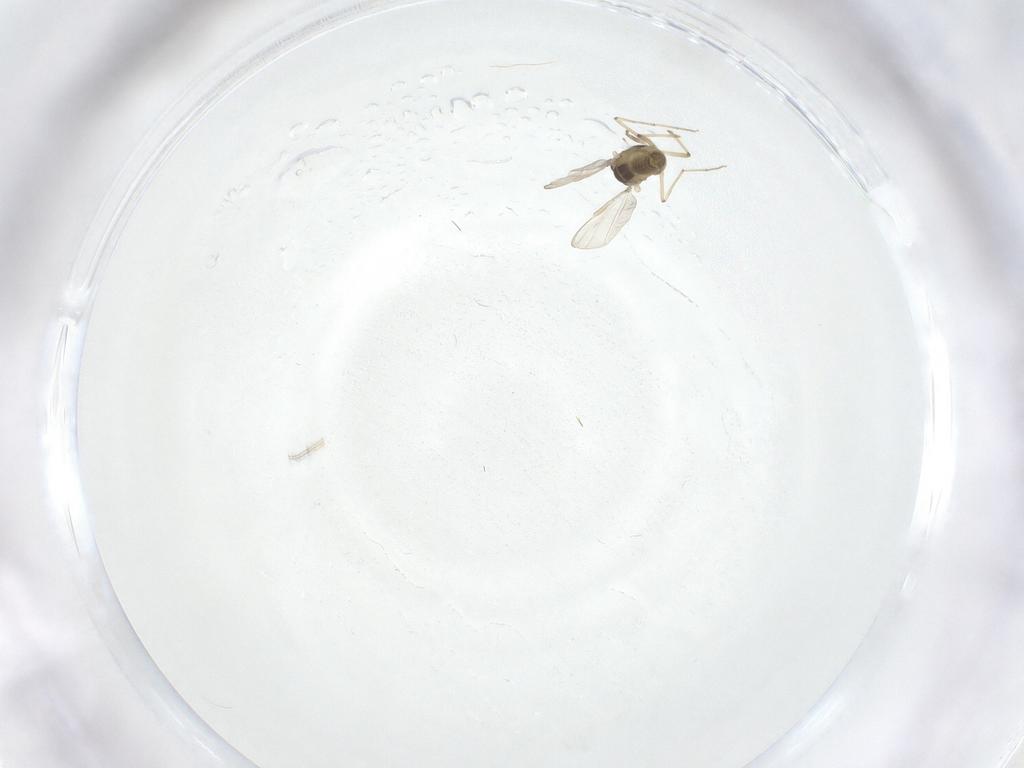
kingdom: Animalia
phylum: Arthropoda
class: Insecta
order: Diptera
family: Chironomidae
